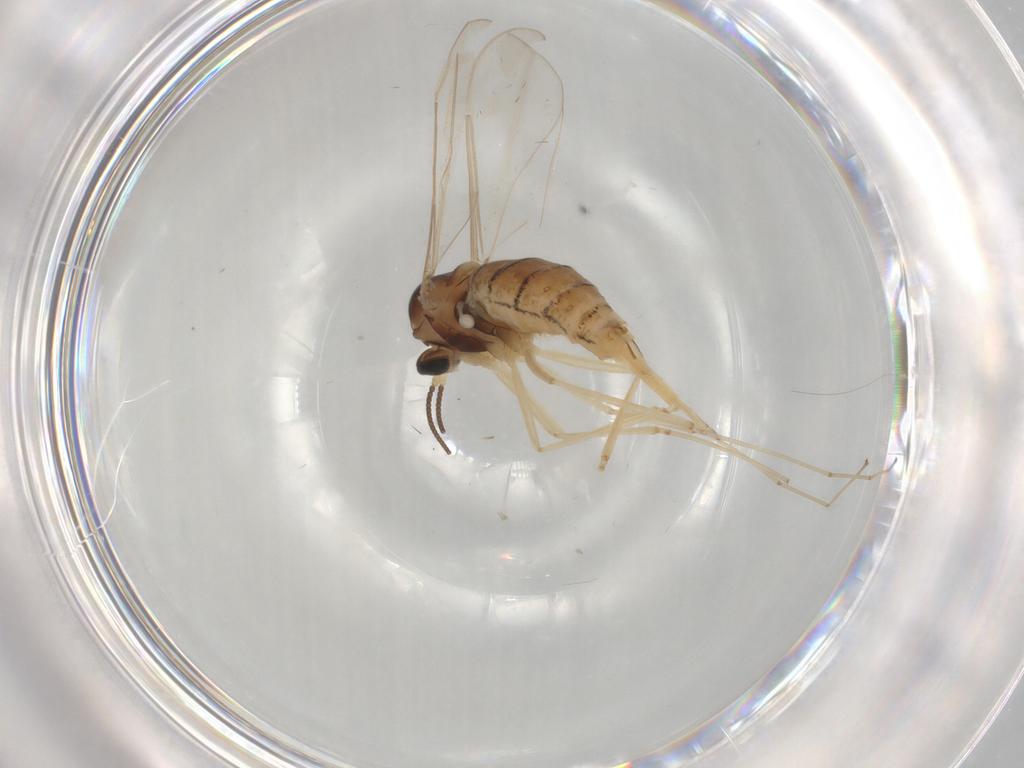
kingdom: Animalia
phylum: Arthropoda
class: Insecta
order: Diptera
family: Cecidomyiidae
